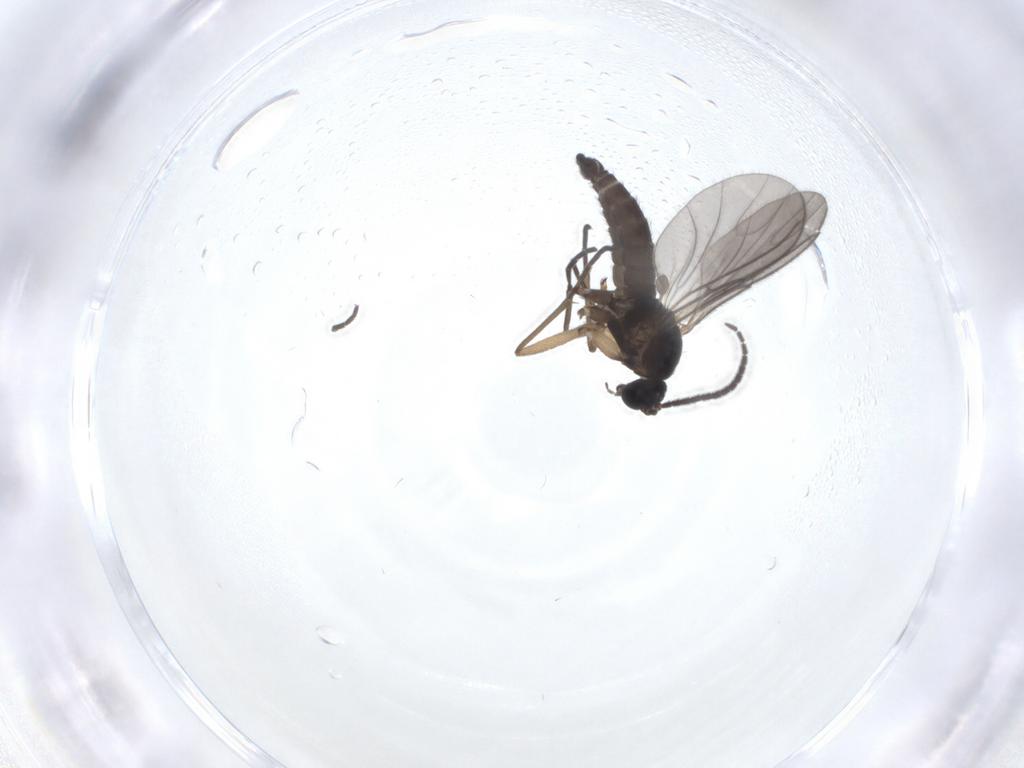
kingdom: Animalia
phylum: Arthropoda
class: Insecta
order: Diptera
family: Sciaridae
